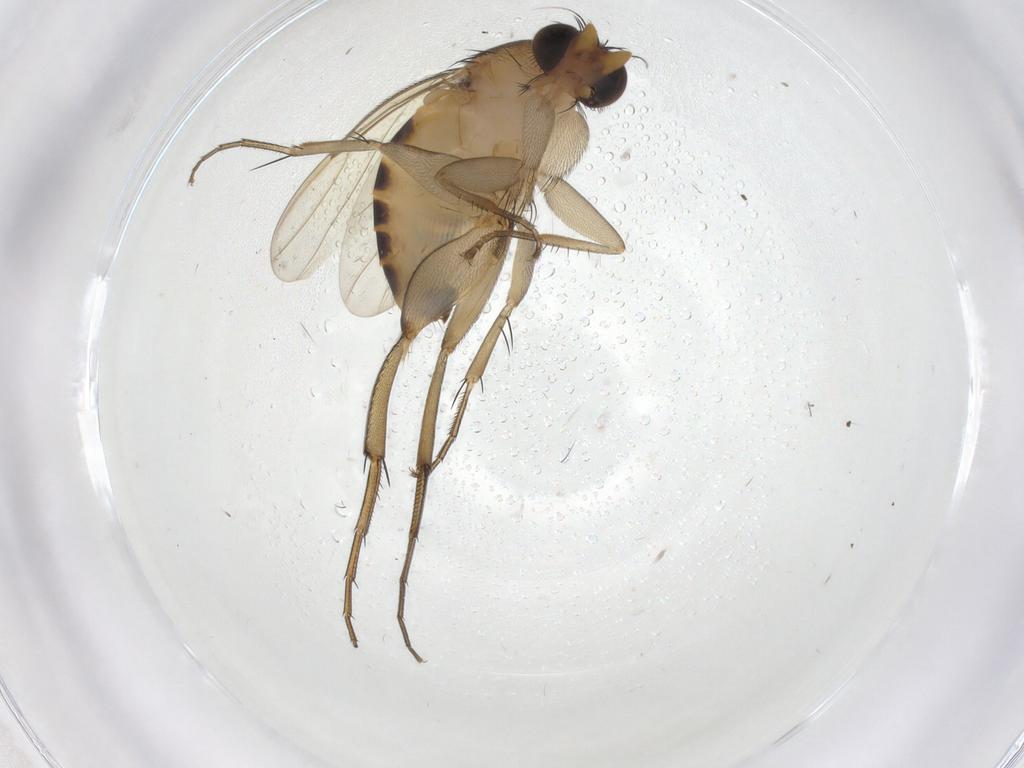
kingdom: Animalia
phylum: Arthropoda
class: Insecta
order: Diptera
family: Phoridae
